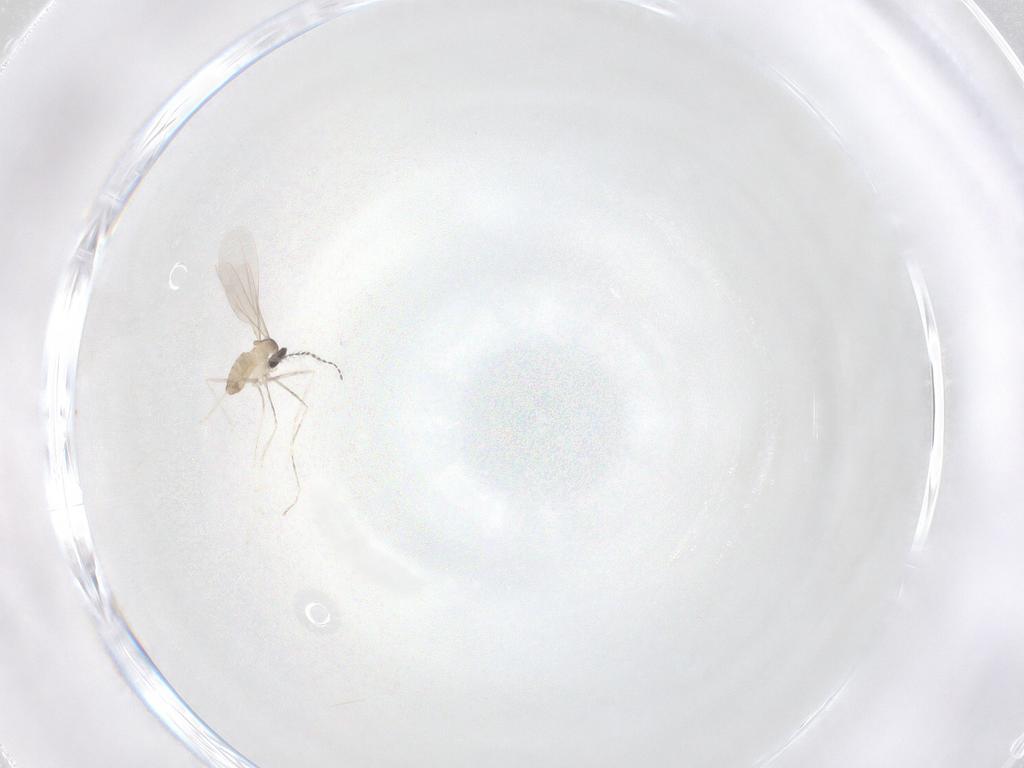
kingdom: Animalia
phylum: Arthropoda
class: Insecta
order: Diptera
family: Cecidomyiidae
